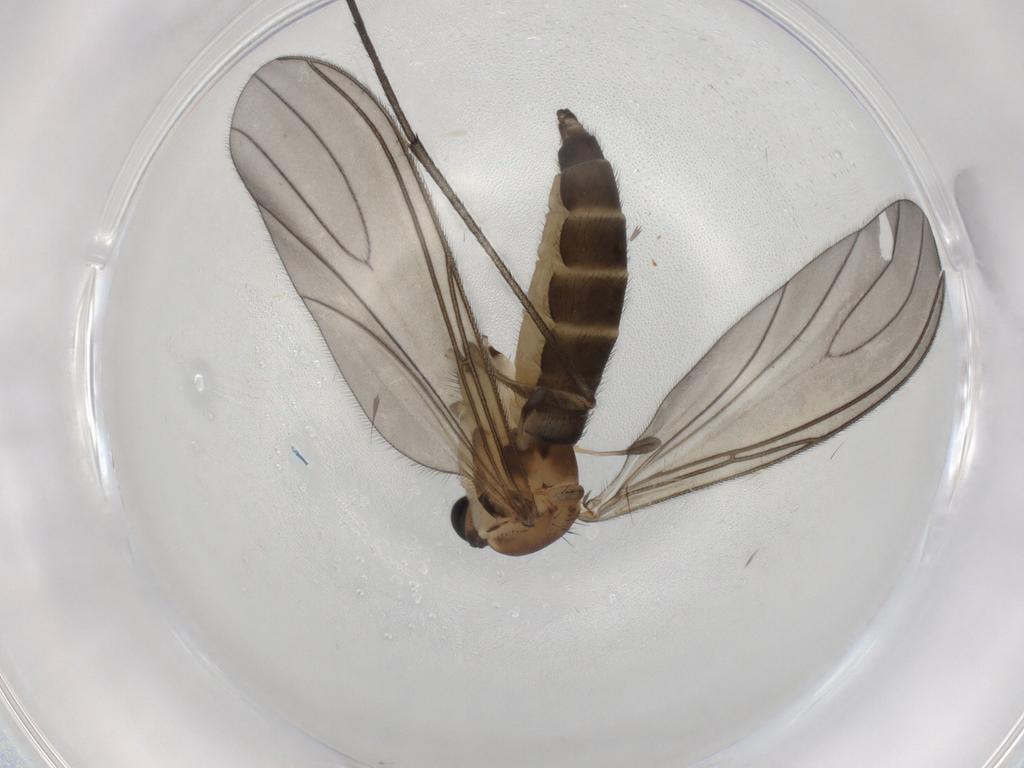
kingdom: Animalia
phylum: Arthropoda
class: Insecta
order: Diptera
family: Sciaridae
